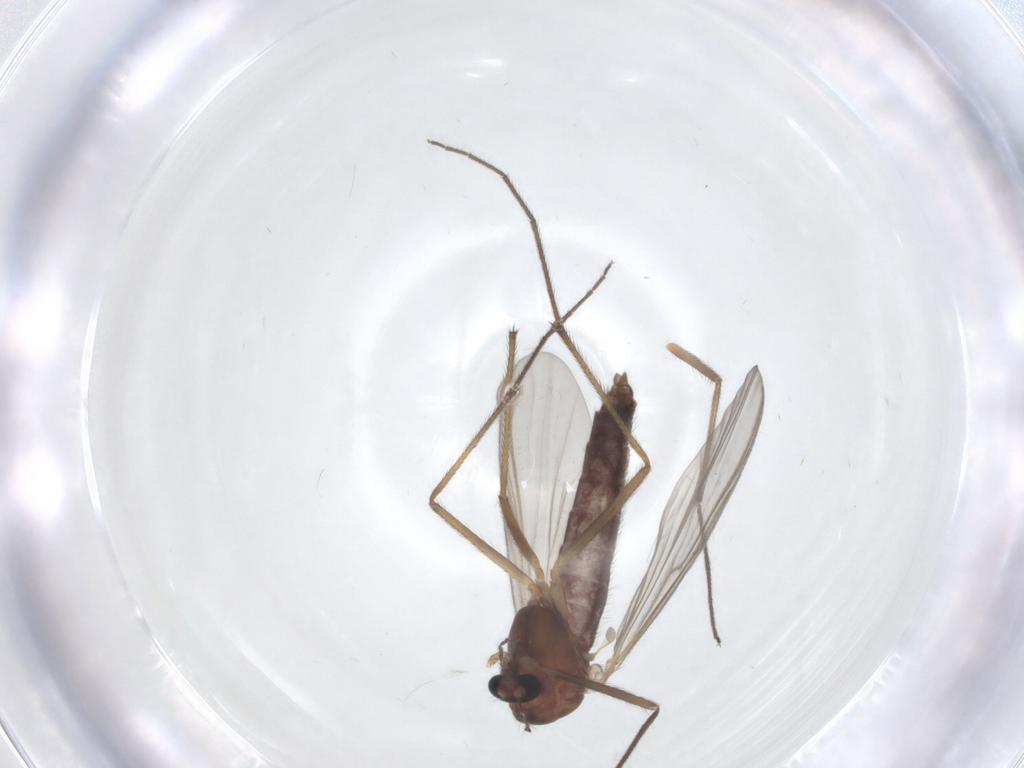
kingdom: Animalia
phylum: Arthropoda
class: Insecta
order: Diptera
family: Chironomidae
